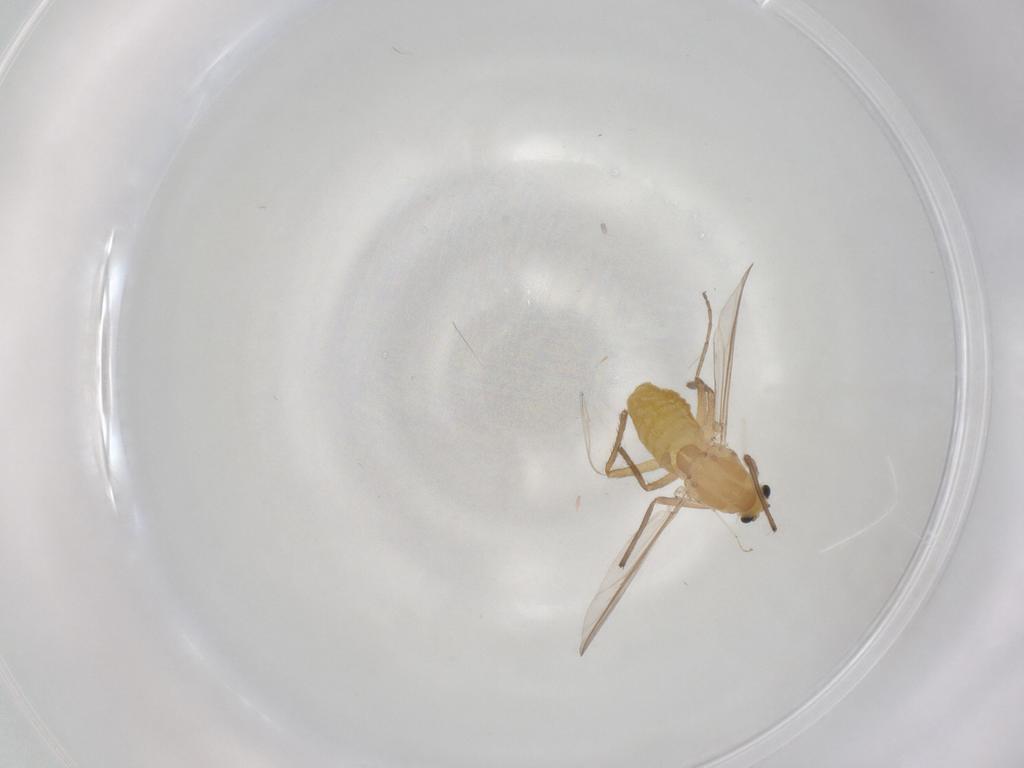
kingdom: Animalia
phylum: Arthropoda
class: Insecta
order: Diptera
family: Chironomidae
